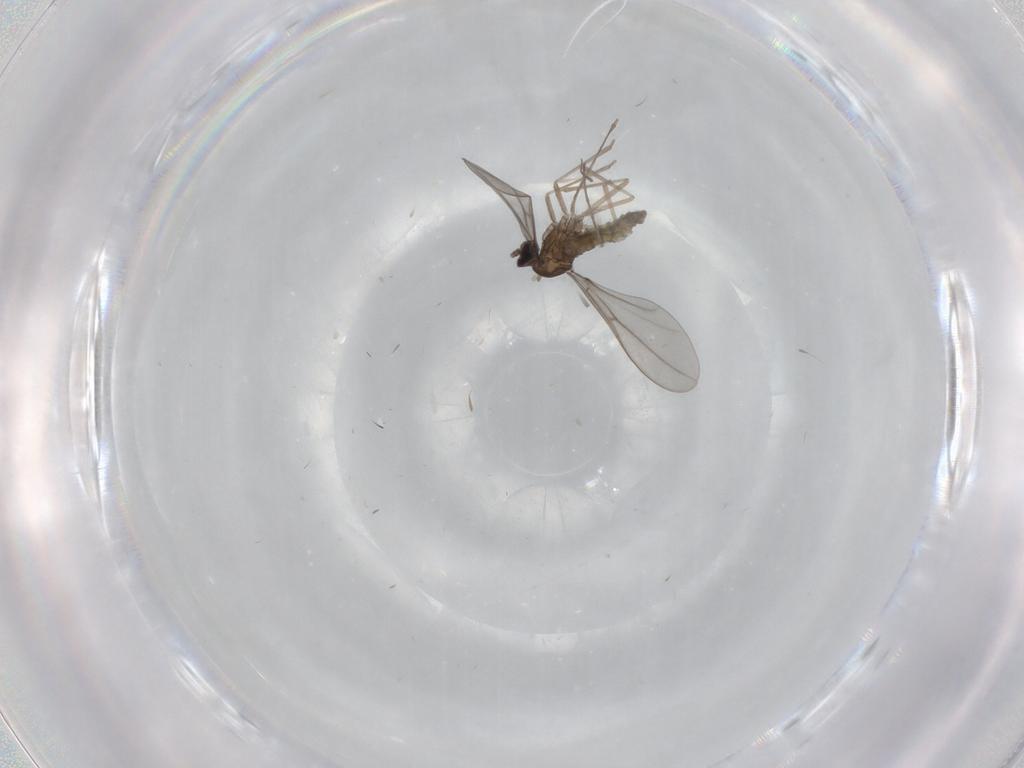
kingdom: Animalia
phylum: Arthropoda
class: Insecta
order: Diptera
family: Chironomidae
